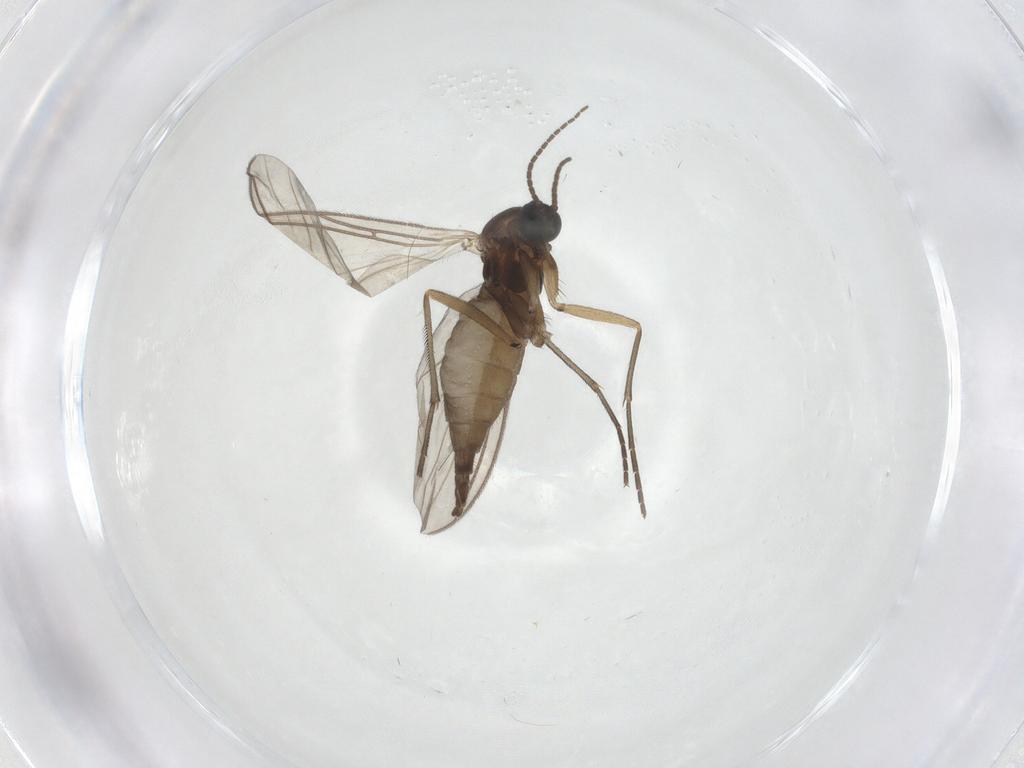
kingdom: Animalia
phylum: Arthropoda
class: Insecta
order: Diptera
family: Sciaridae
